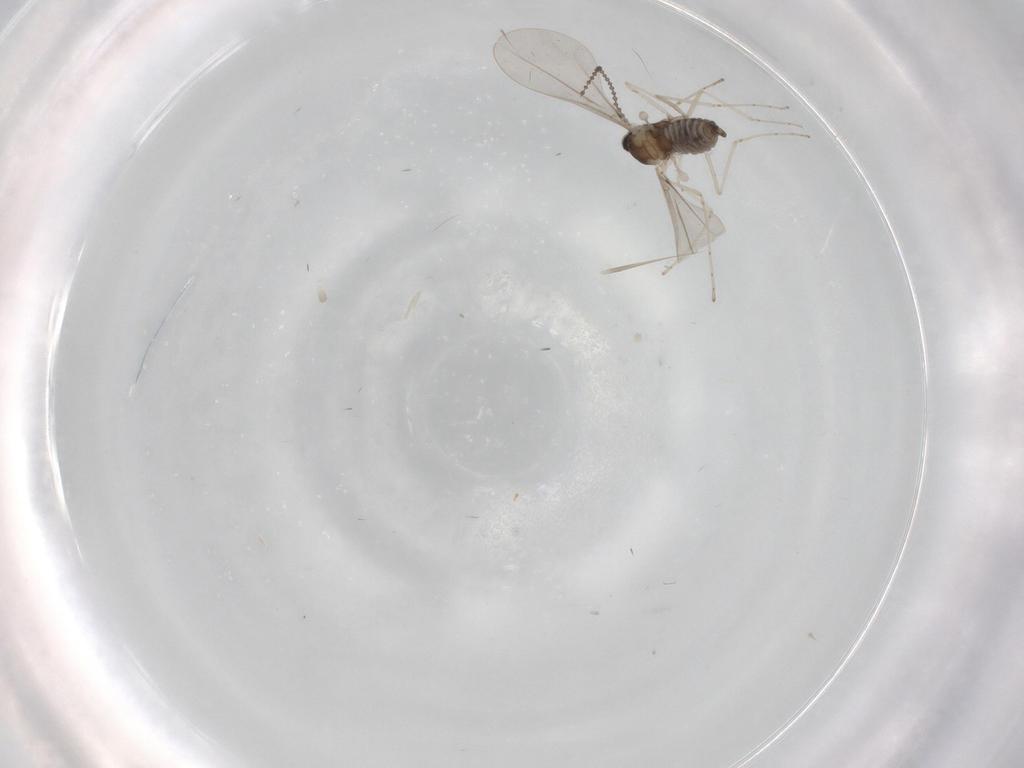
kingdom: Animalia
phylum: Arthropoda
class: Insecta
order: Diptera
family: Cecidomyiidae
